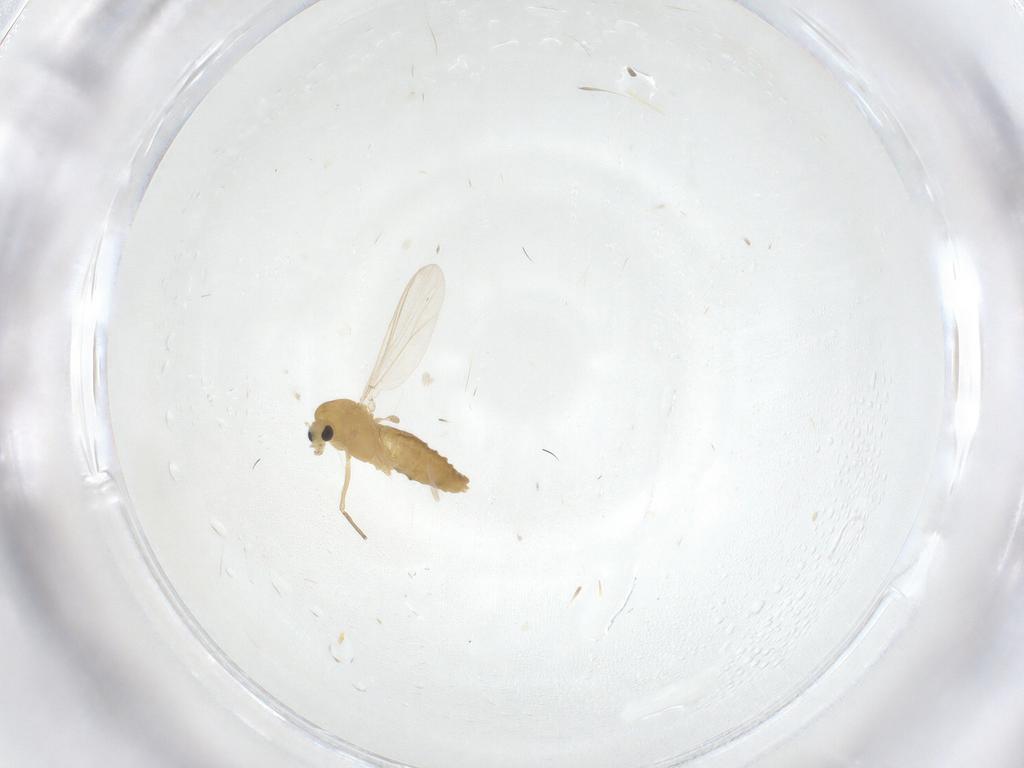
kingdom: Animalia
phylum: Arthropoda
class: Insecta
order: Diptera
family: Chironomidae
